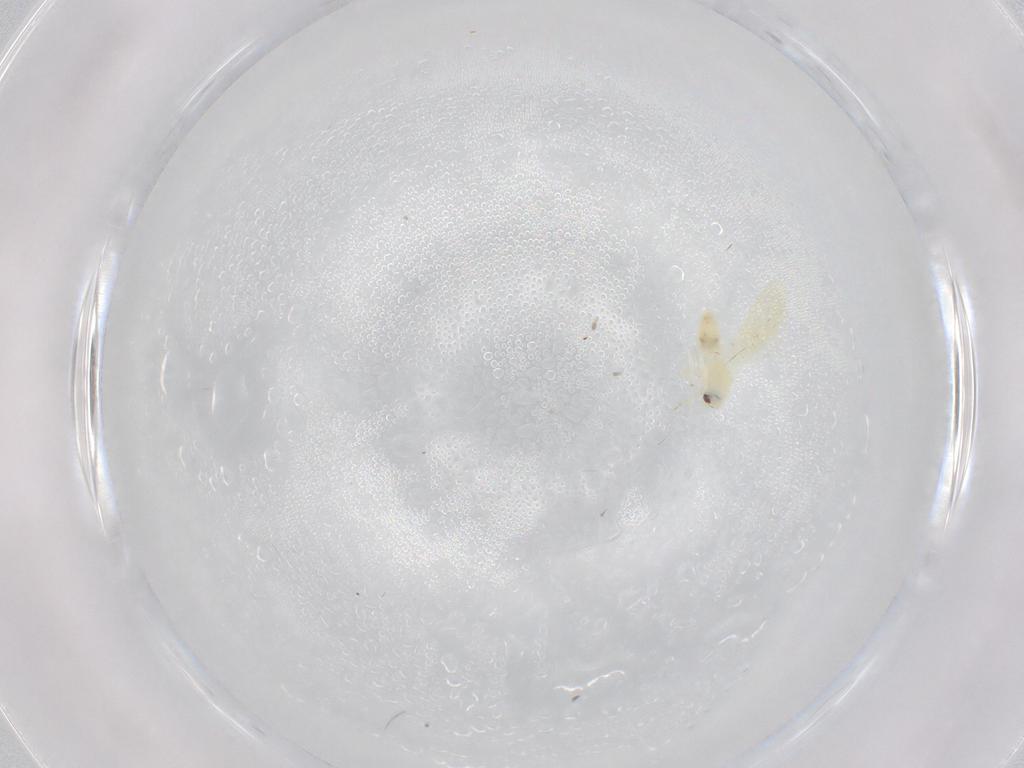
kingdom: Animalia
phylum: Arthropoda
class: Insecta
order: Hemiptera
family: Aleyrodidae
